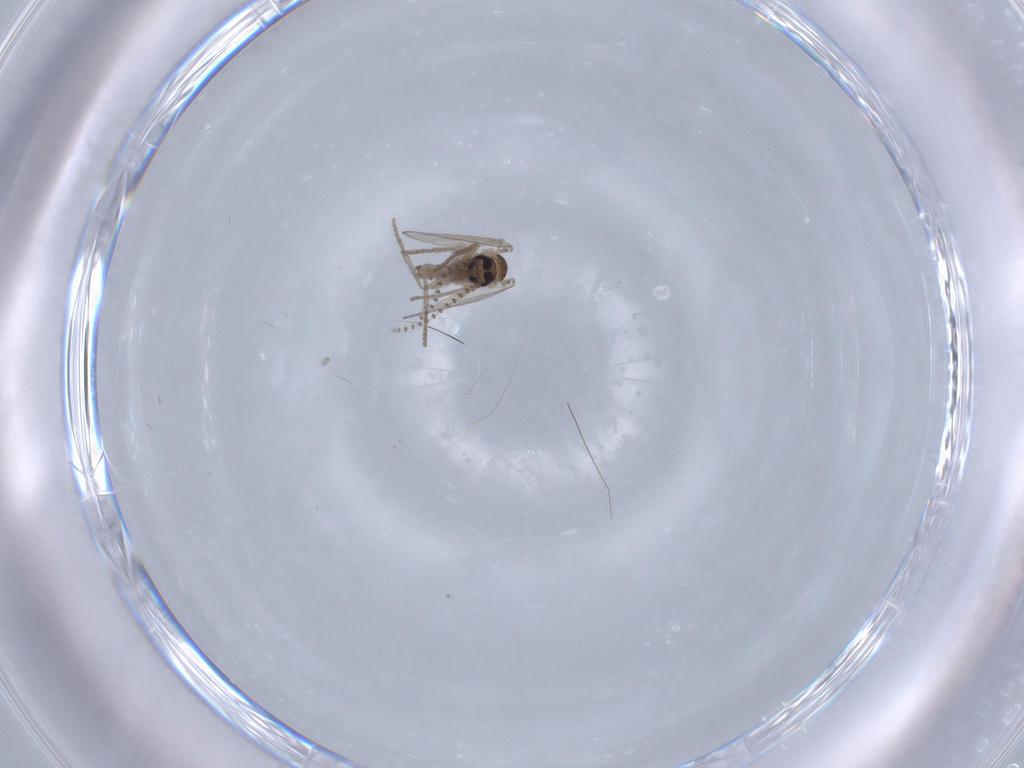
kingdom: Animalia
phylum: Arthropoda
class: Insecta
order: Diptera
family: Psychodidae
